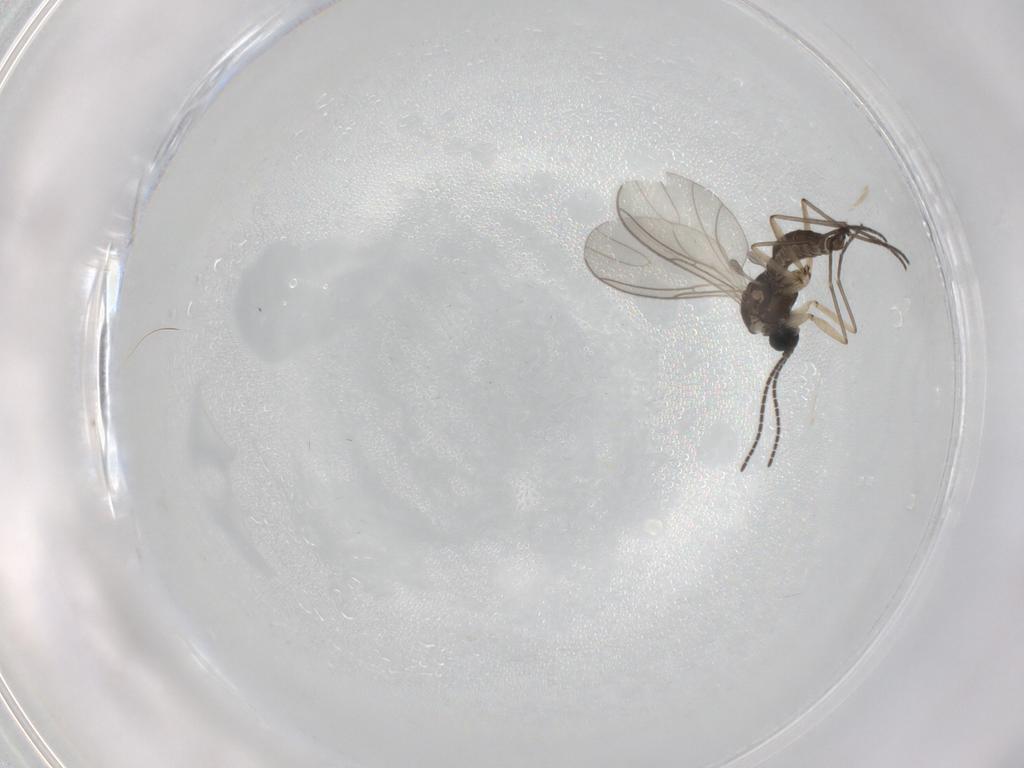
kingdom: Animalia
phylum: Arthropoda
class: Insecta
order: Diptera
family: Sciaridae
